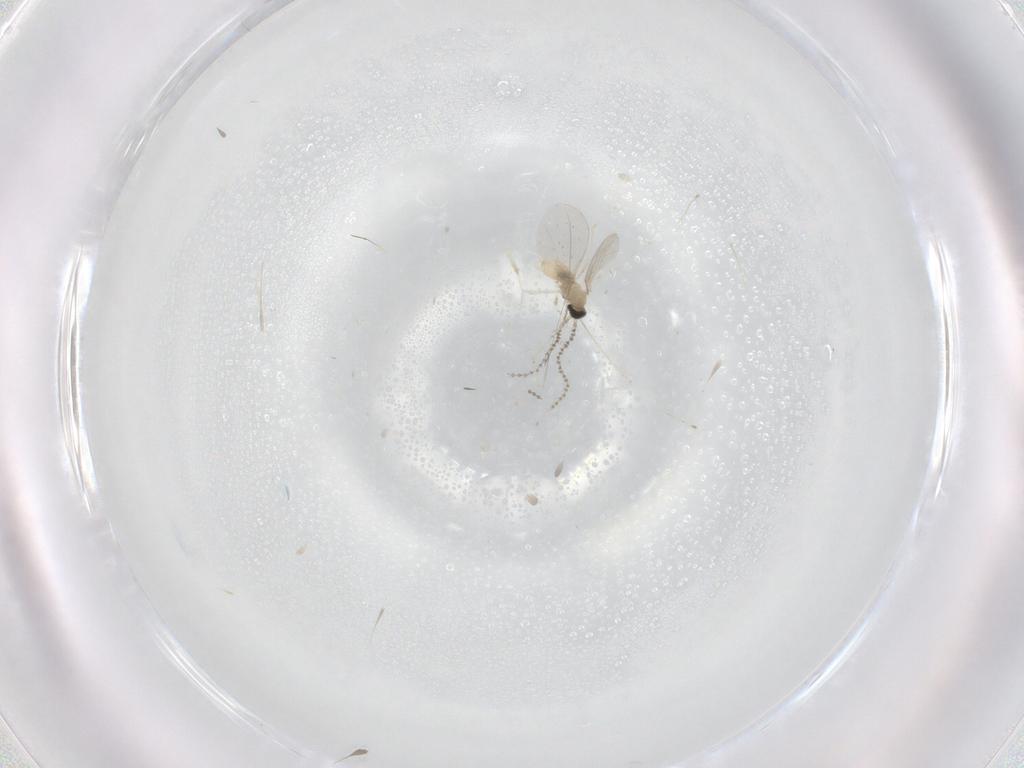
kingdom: Animalia
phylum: Arthropoda
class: Insecta
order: Diptera
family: Cecidomyiidae
